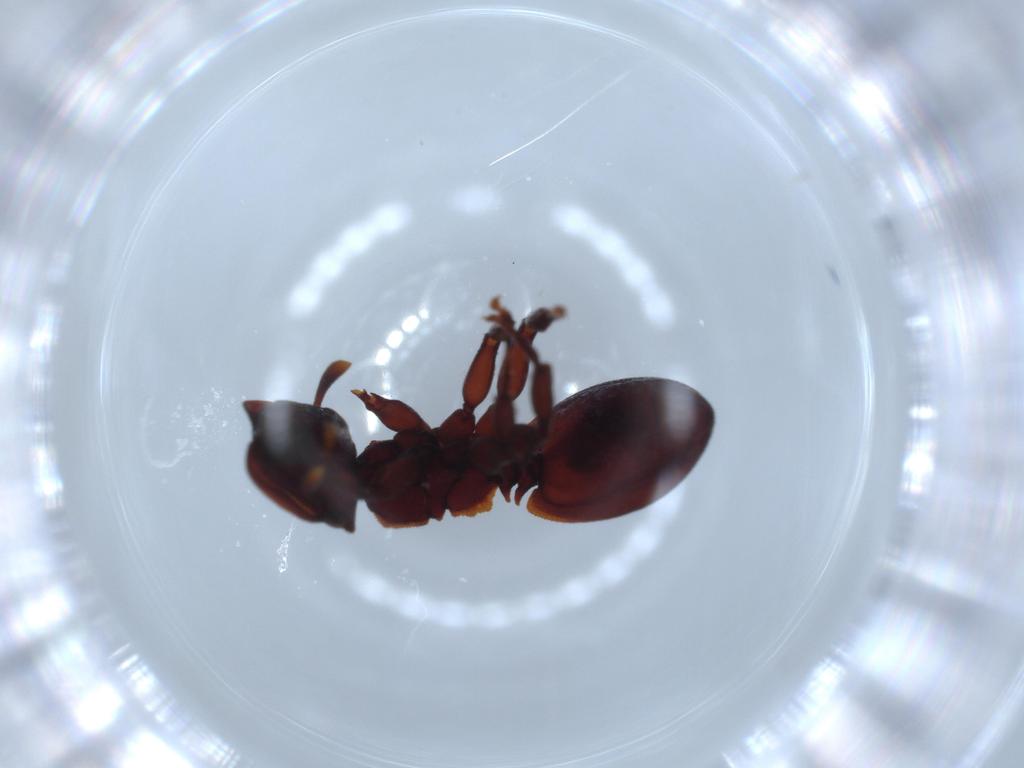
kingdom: Animalia
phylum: Arthropoda
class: Insecta
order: Hymenoptera
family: Formicidae
